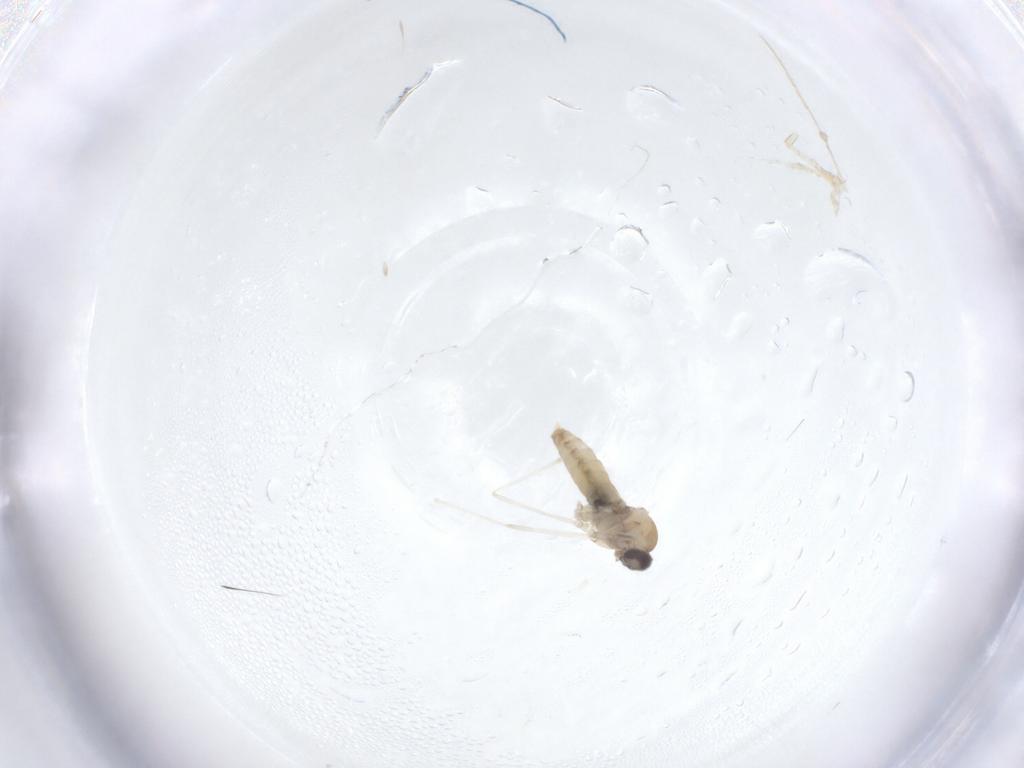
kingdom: Animalia
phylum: Arthropoda
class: Insecta
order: Diptera
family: Cecidomyiidae
